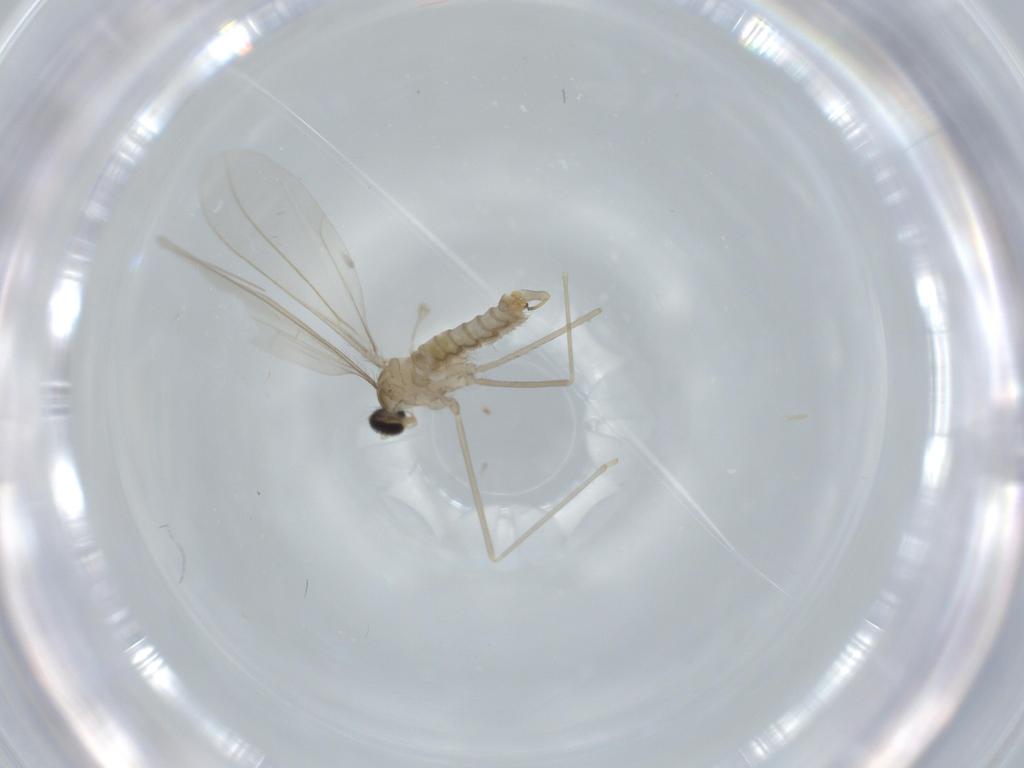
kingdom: Animalia
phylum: Arthropoda
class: Insecta
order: Diptera
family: Cecidomyiidae
